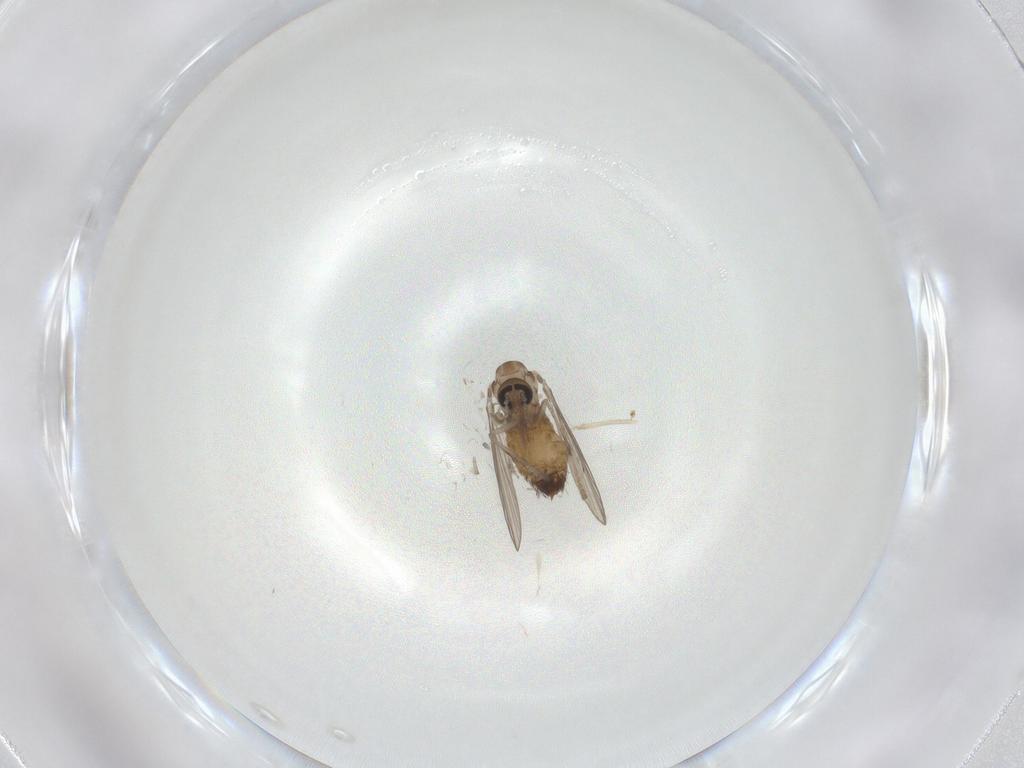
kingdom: Animalia
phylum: Arthropoda
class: Insecta
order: Diptera
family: Psychodidae
